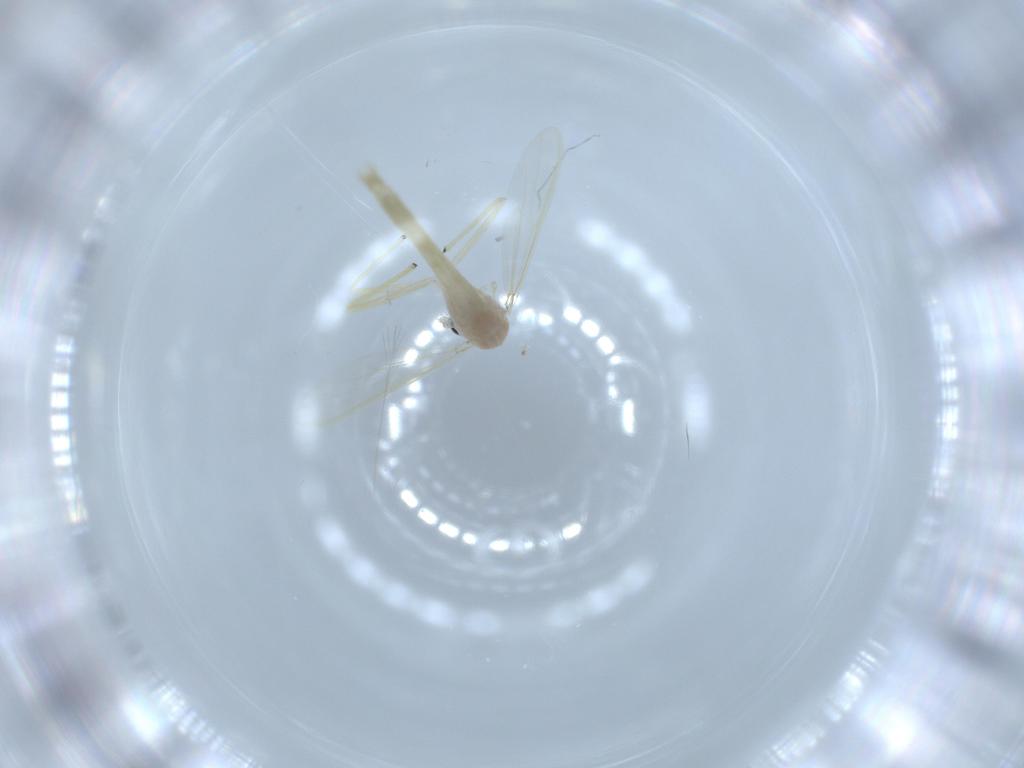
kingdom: Animalia
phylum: Arthropoda
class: Insecta
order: Diptera
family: Chironomidae
